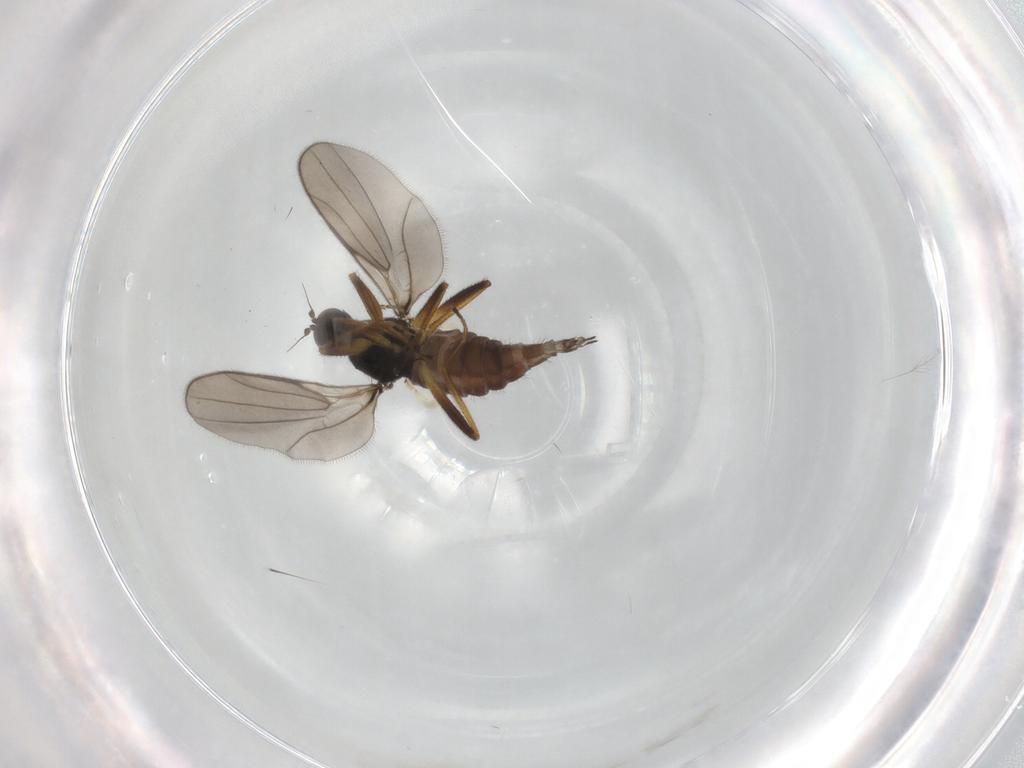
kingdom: Animalia
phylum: Arthropoda
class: Insecta
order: Diptera
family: Hybotidae
